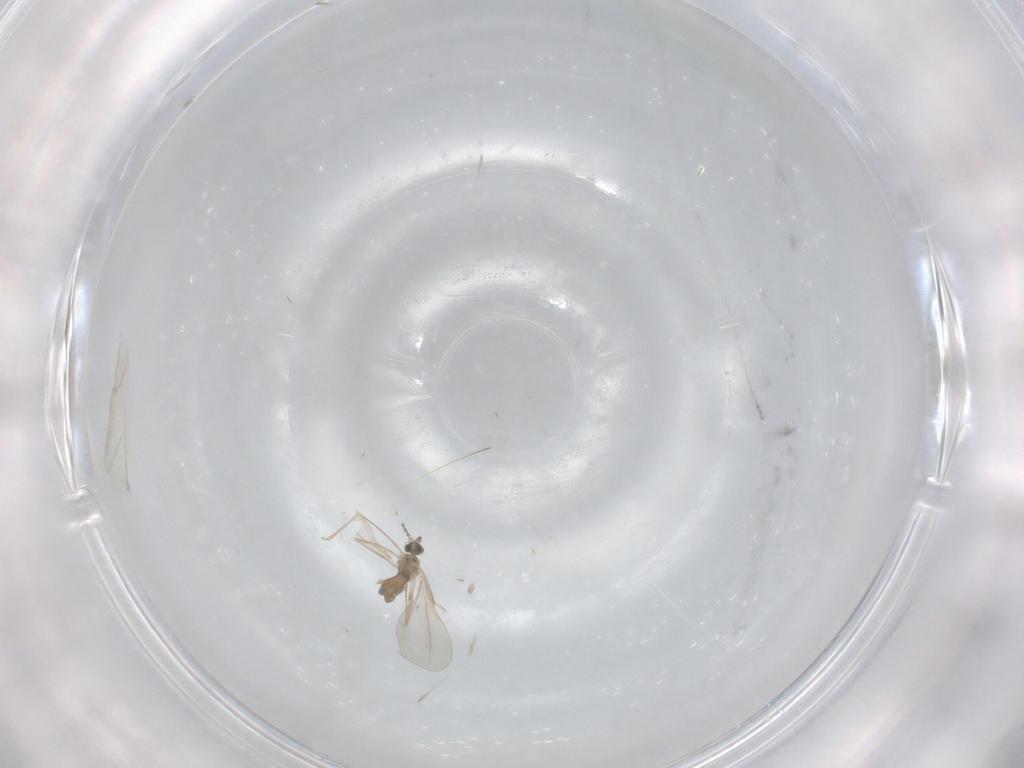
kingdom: Animalia
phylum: Arthropoda
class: Insecta
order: Diptera
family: Cecidomyiidae
